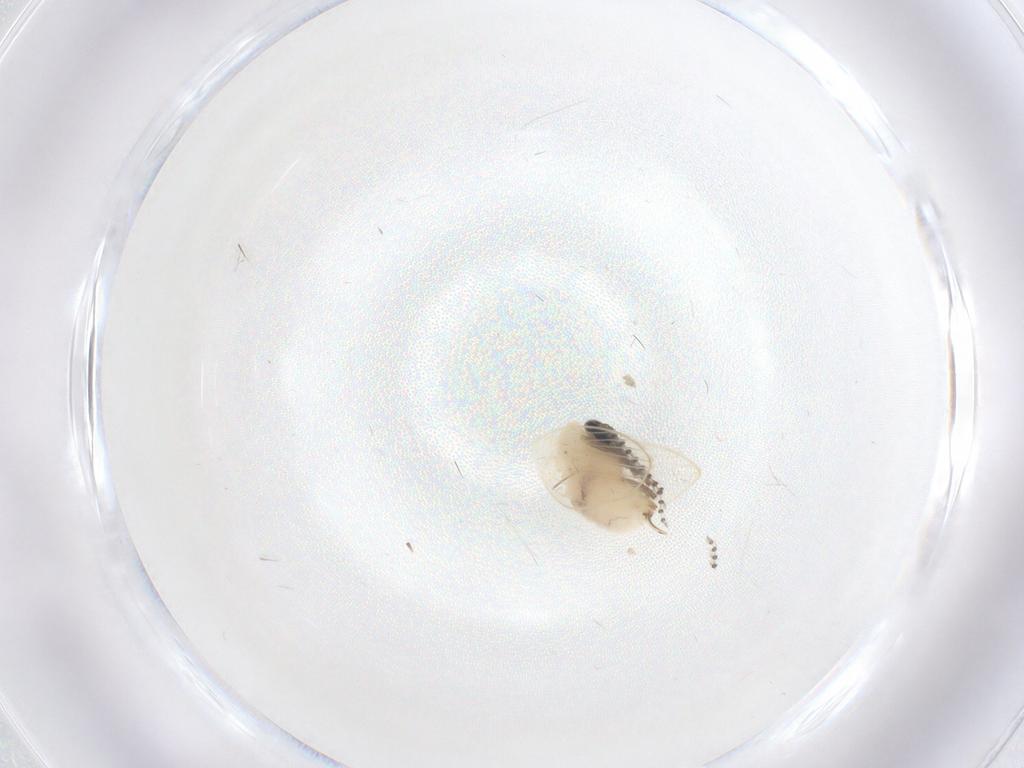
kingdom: Animalia
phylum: Arthropoda
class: Insecta
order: Diptera
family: Psychodidae
